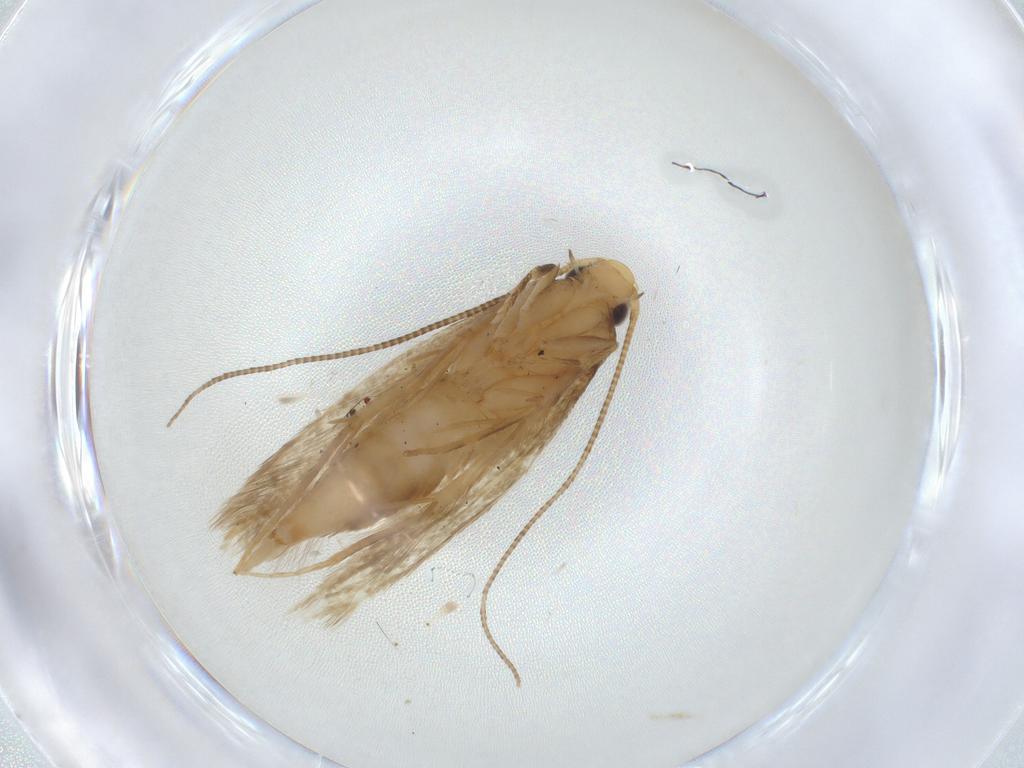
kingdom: Animalia
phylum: Arthropoda
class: Insecta
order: Lepidoptera
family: Tineidae
